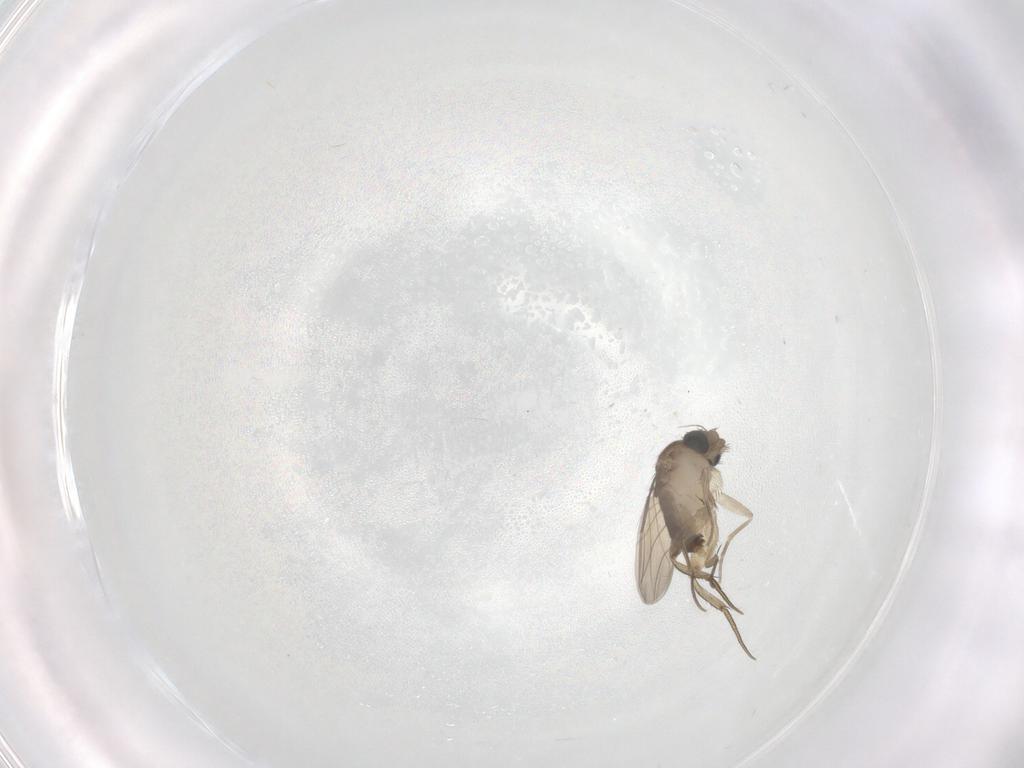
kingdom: Animalia
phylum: Arthropoda
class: Insecta
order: Diptera
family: Phoridae
